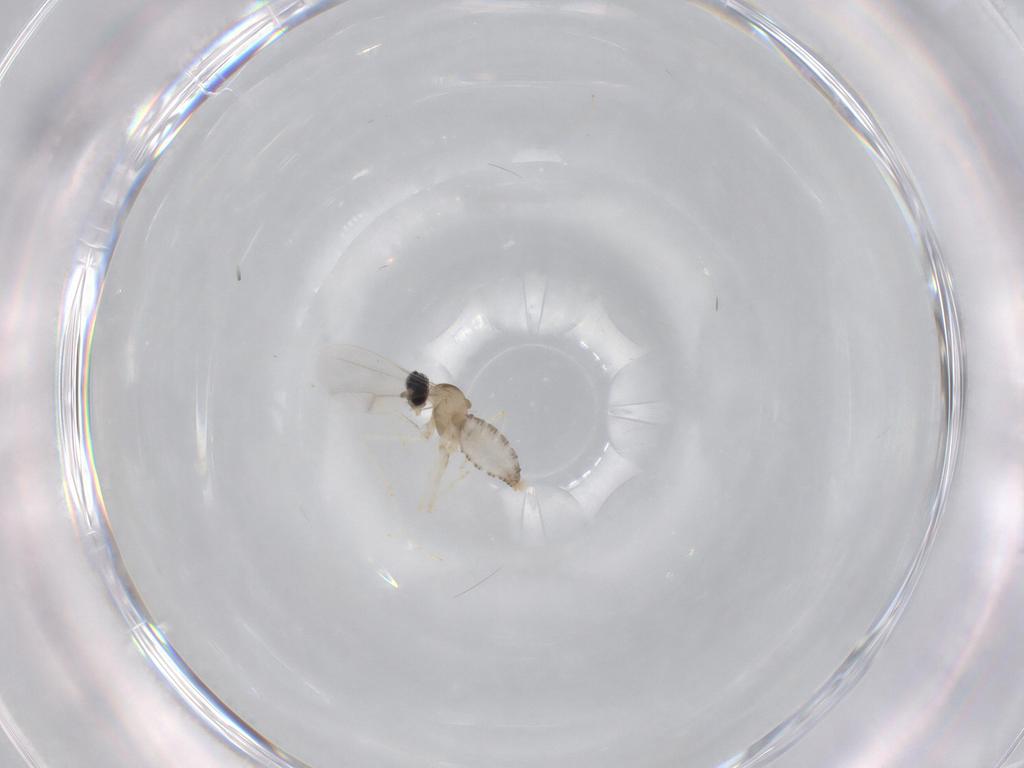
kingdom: Animalia
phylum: Arthropoda
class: Insecta
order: Diptera
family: Cecidomyiidae
